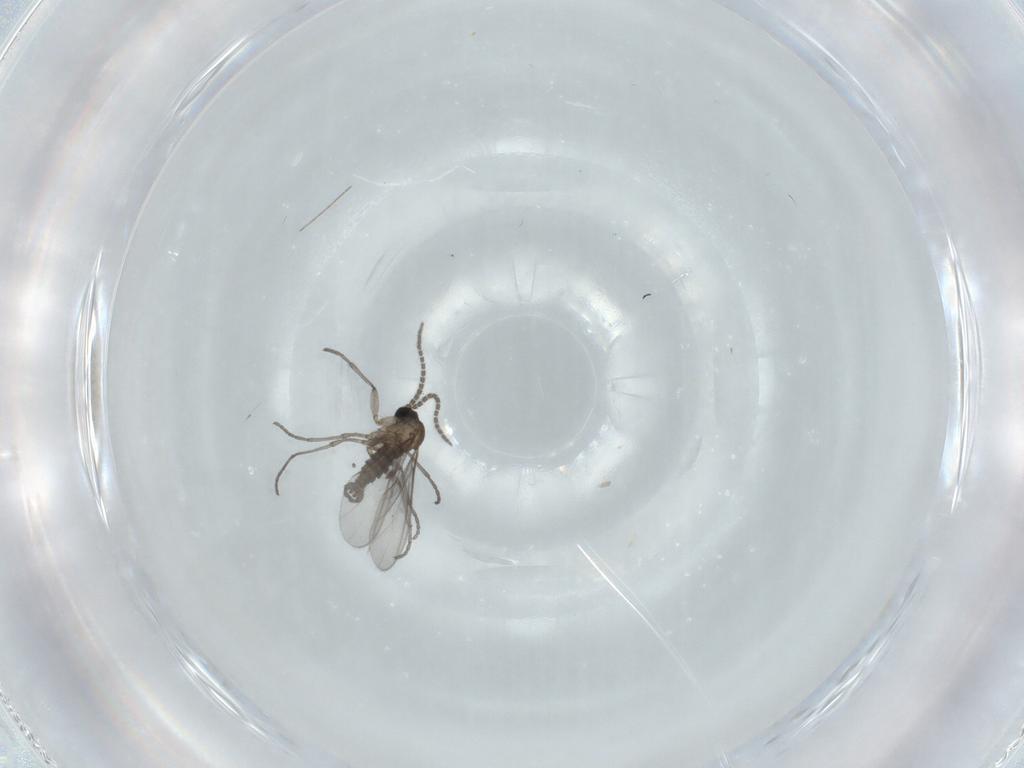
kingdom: Animalia
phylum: Arthropoda
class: Insecta
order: Diptera
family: Sciaridae
